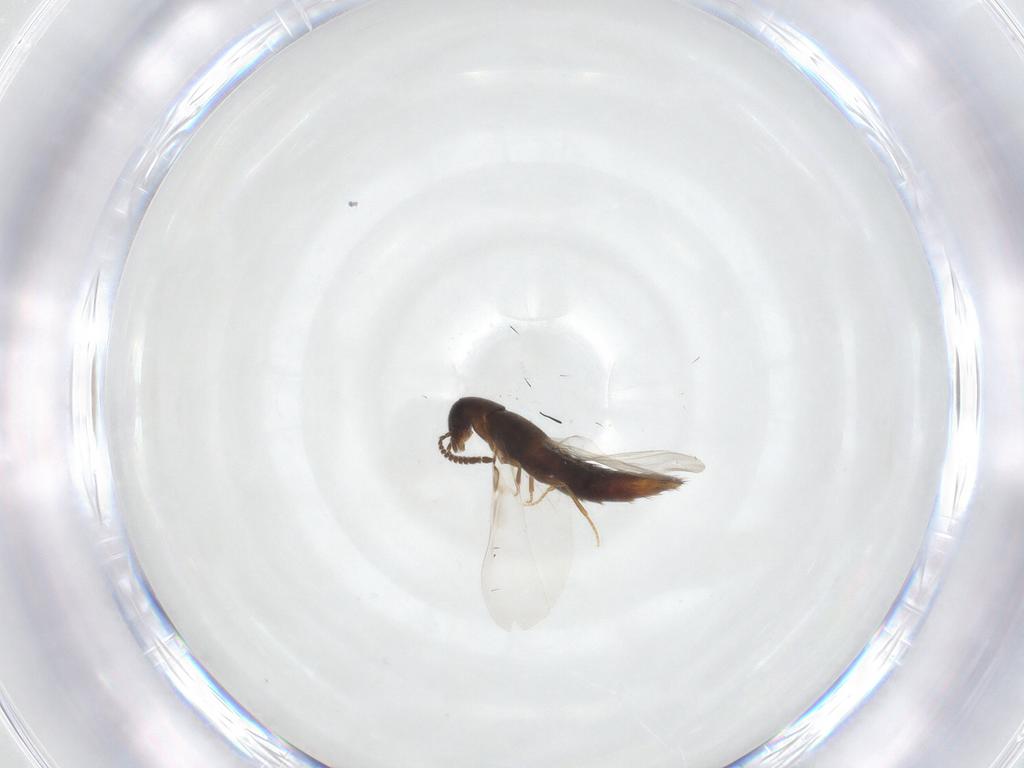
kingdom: Animalia
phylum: Arthropoda
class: Insecta
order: Coleoptera
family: Staphylinidae
